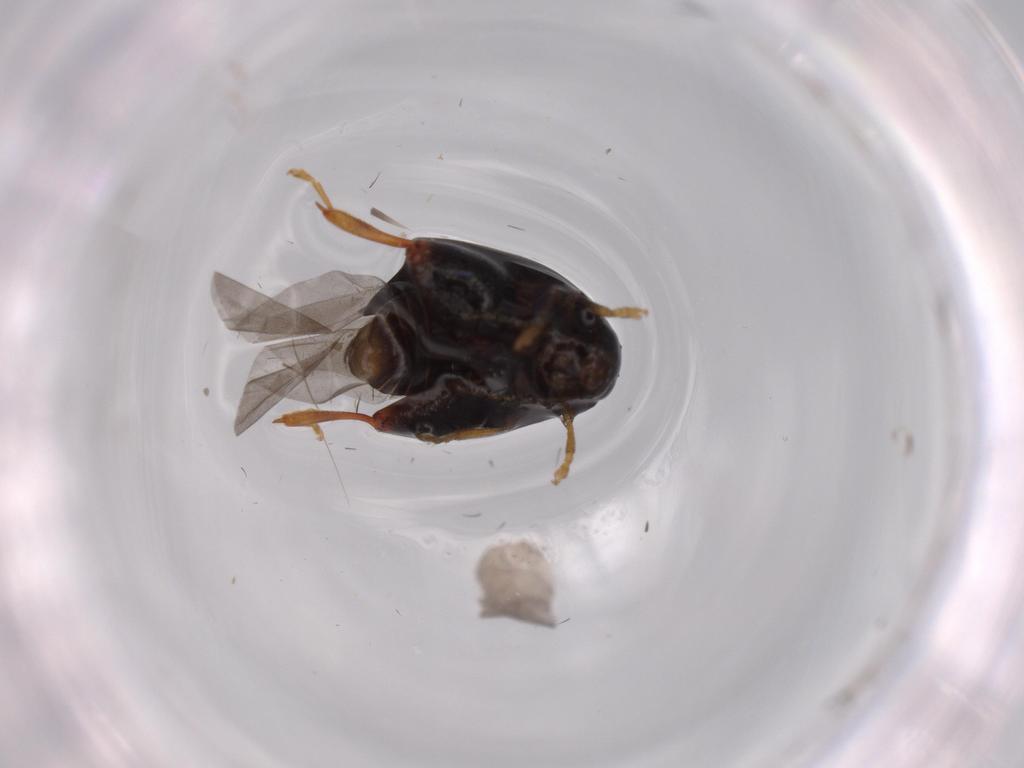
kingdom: Animalia
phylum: Arthropoda
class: Insecta
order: Coleoptera
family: Chrysomelidae
